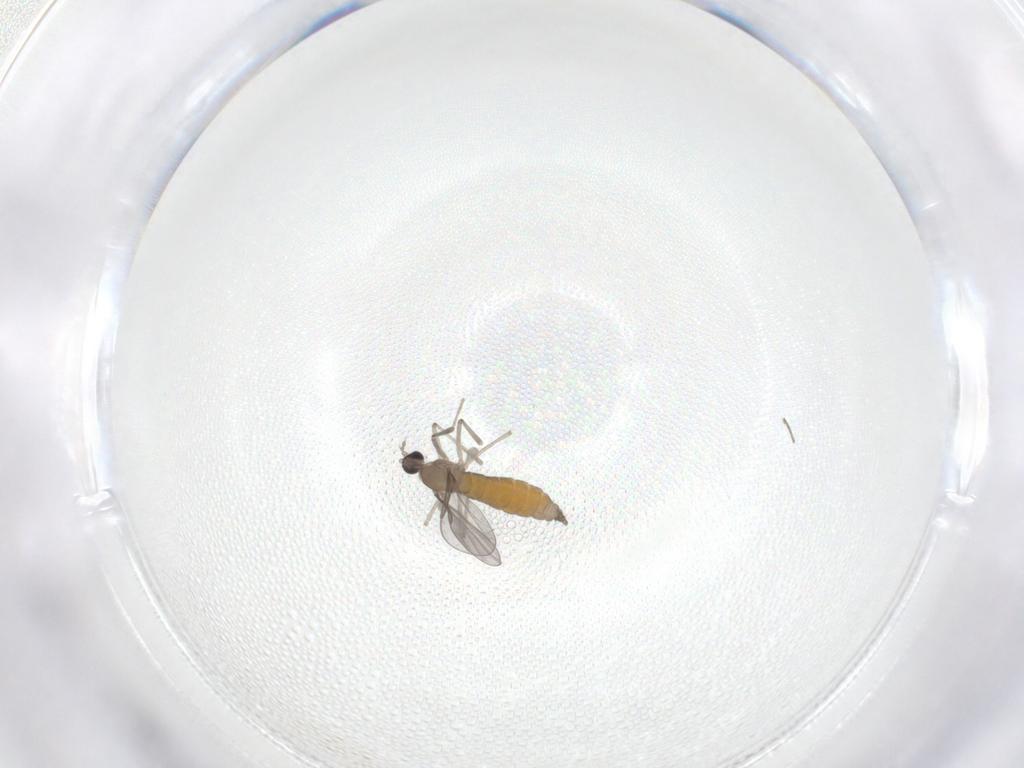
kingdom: Animalia
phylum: Arthropoda
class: Insecta
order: Diptera
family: Cecidomyiidae
